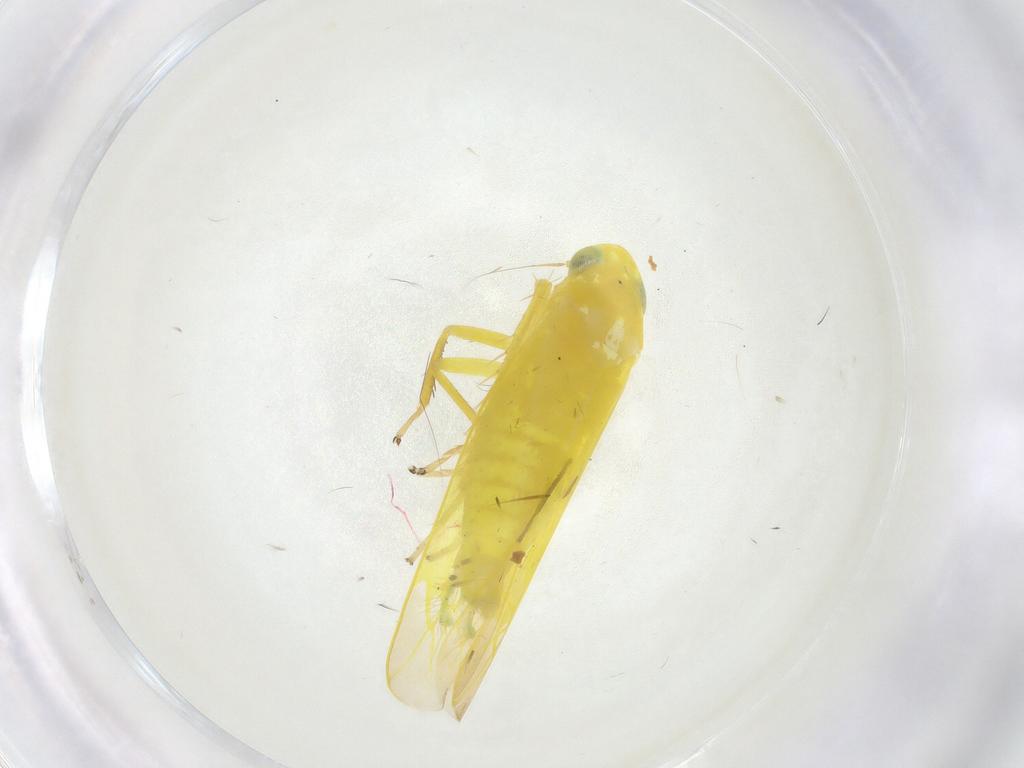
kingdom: Animalia
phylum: Arthropoda
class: Insecta
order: Hemiptera
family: Cicadellidae
